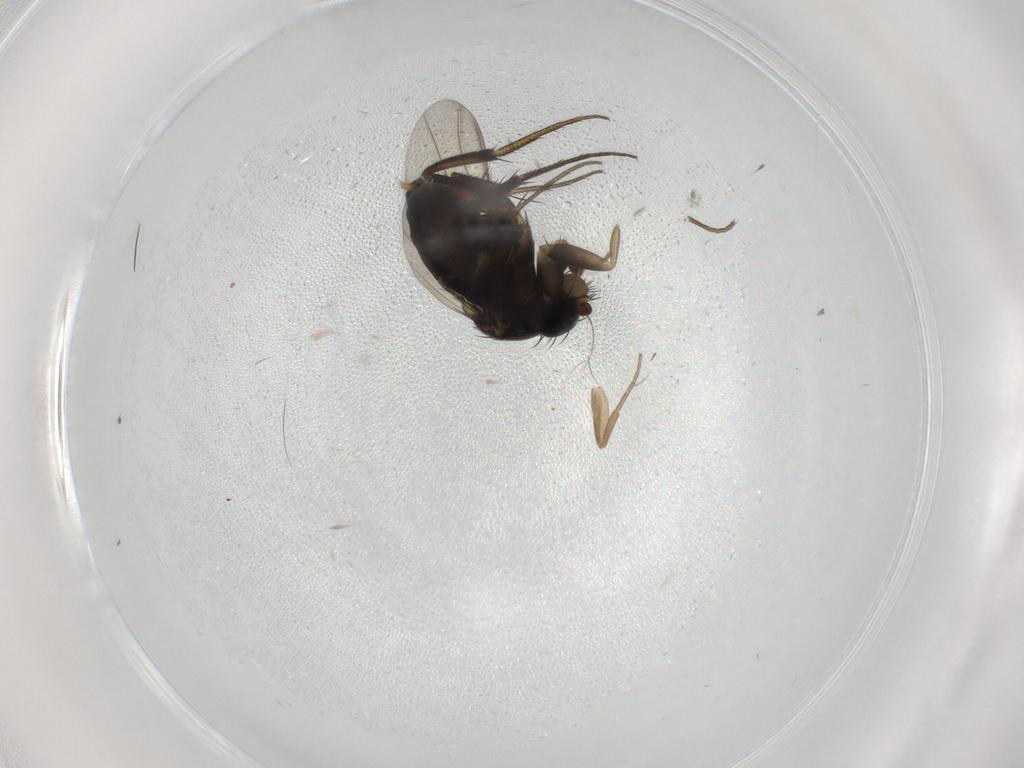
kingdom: Animalia
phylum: Arthropoda
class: Insecta
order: Diptera
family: Phoridae
